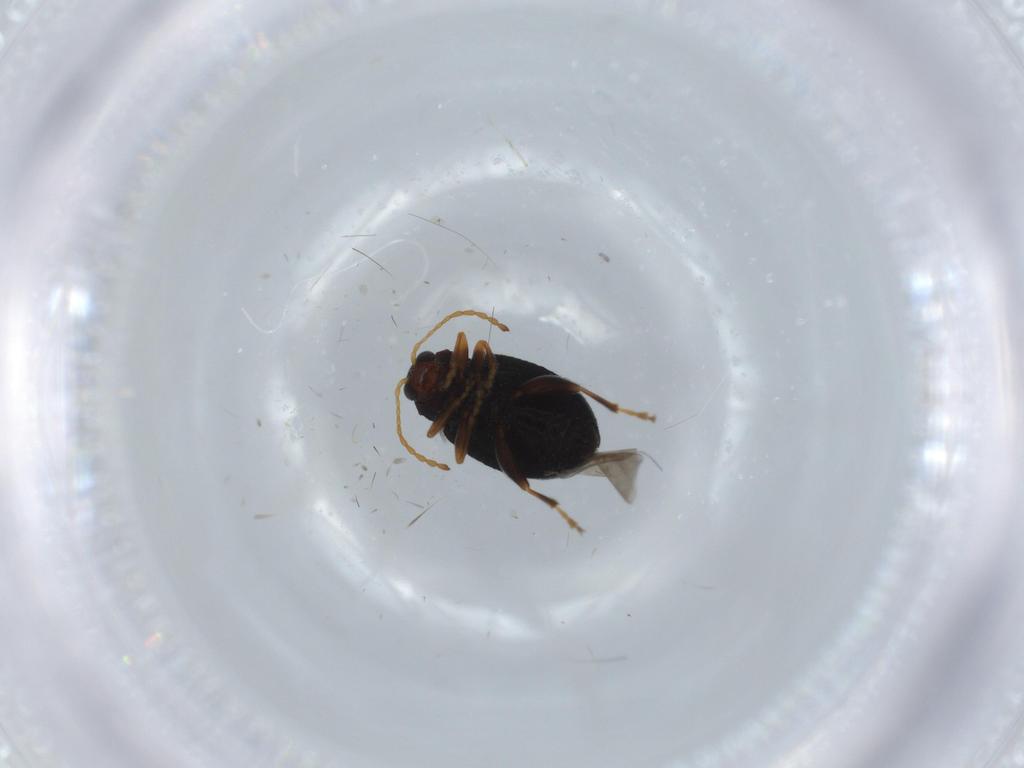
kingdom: Animalia
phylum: Arthropoda
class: Insecta
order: Coleoptera
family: Chrysomelidae
